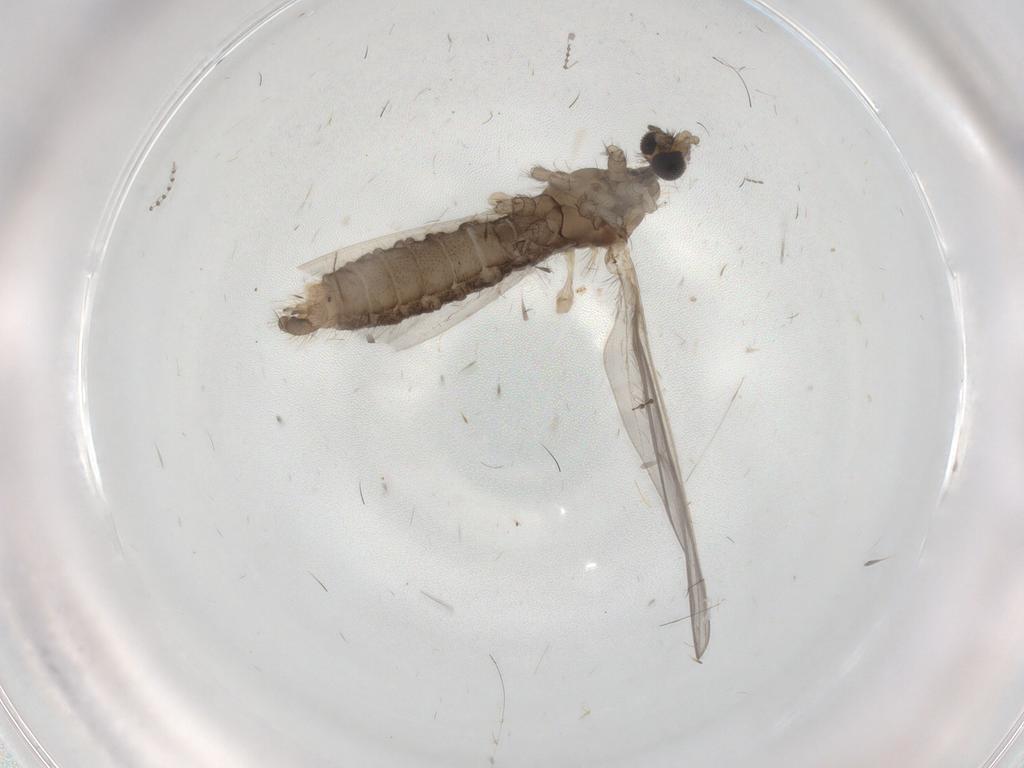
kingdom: Animalia
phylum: Arthropoda
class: Insecta
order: Diptera
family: Limoniidae
